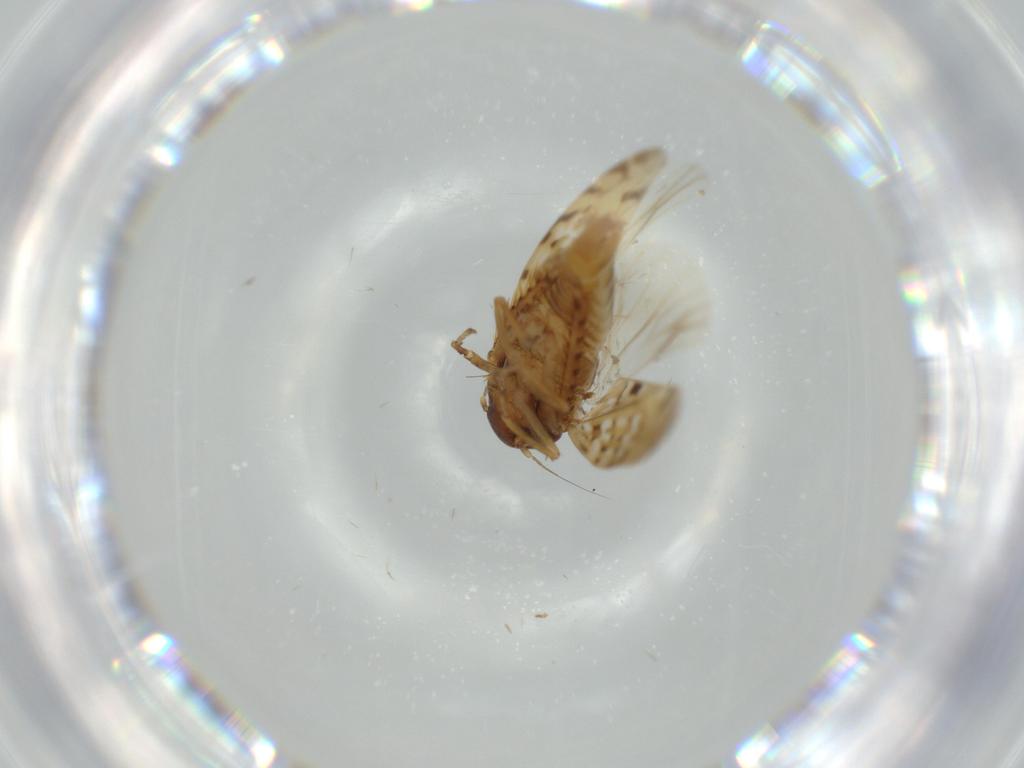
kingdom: Animalia
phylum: Arthropoda
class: Insecta
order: Hemiptera
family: Cicadellidae
